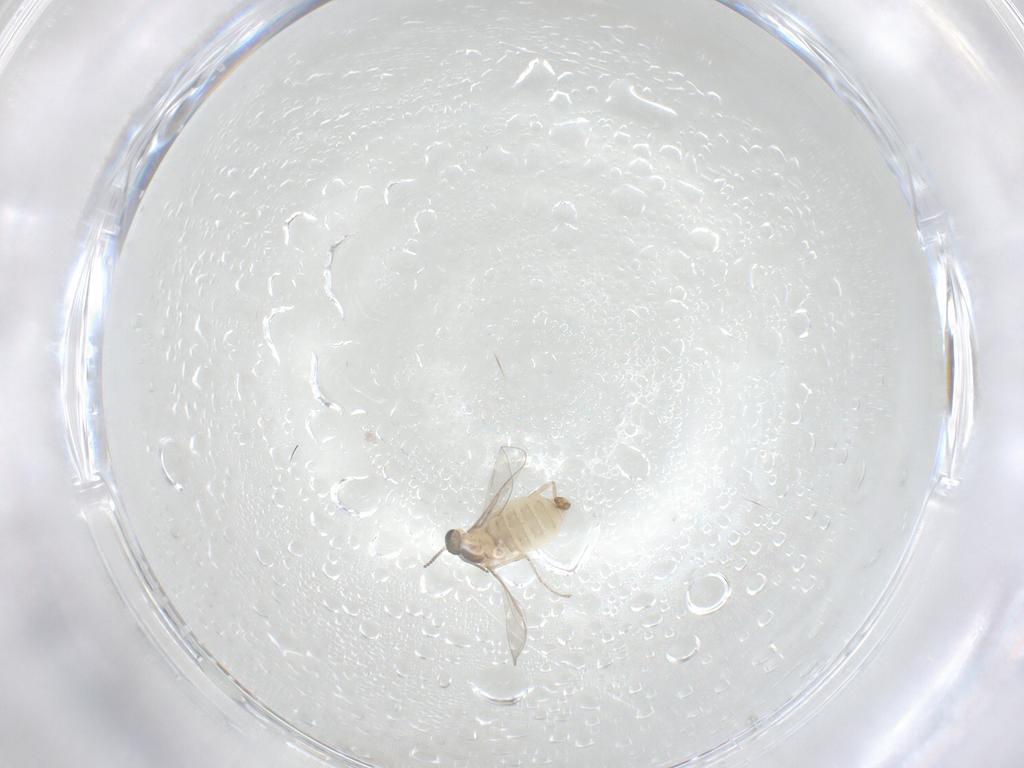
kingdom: Animalia
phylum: Arthropoda
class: Insecta
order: Diptera
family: Cecidomyiidae
